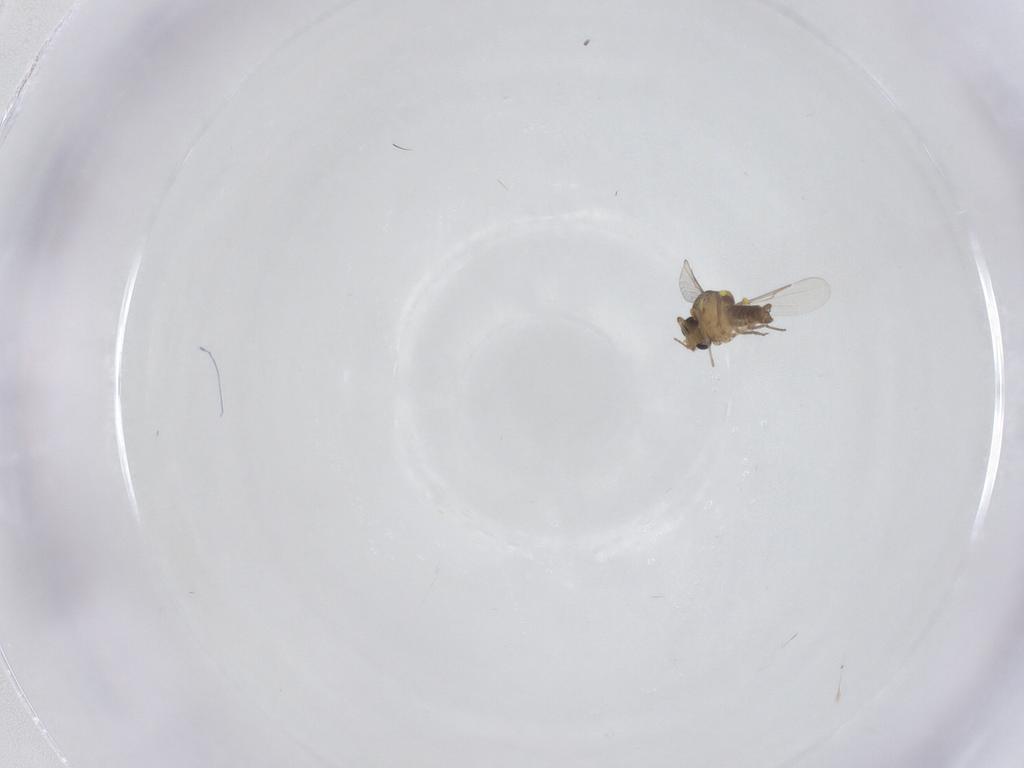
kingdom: Animalia
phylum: Arthropoda
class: Insecta
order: Diptera
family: Ceratopogonidae
